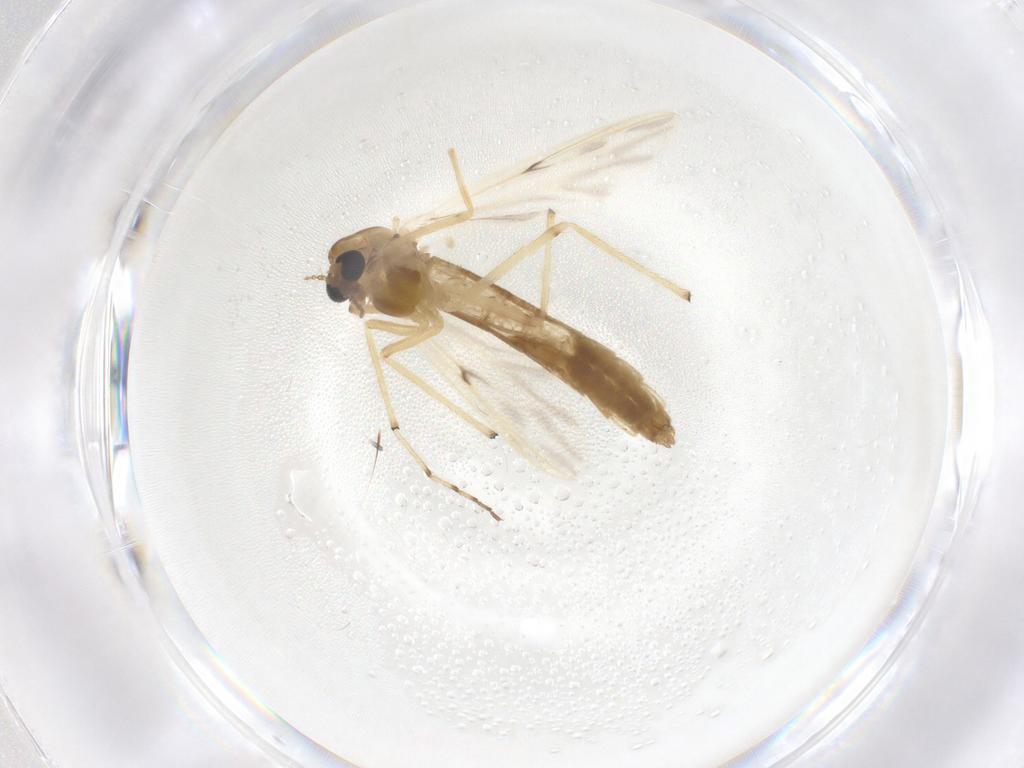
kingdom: Animalia
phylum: Arthropoda
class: Insecta
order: Diptera
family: Chironomidae
